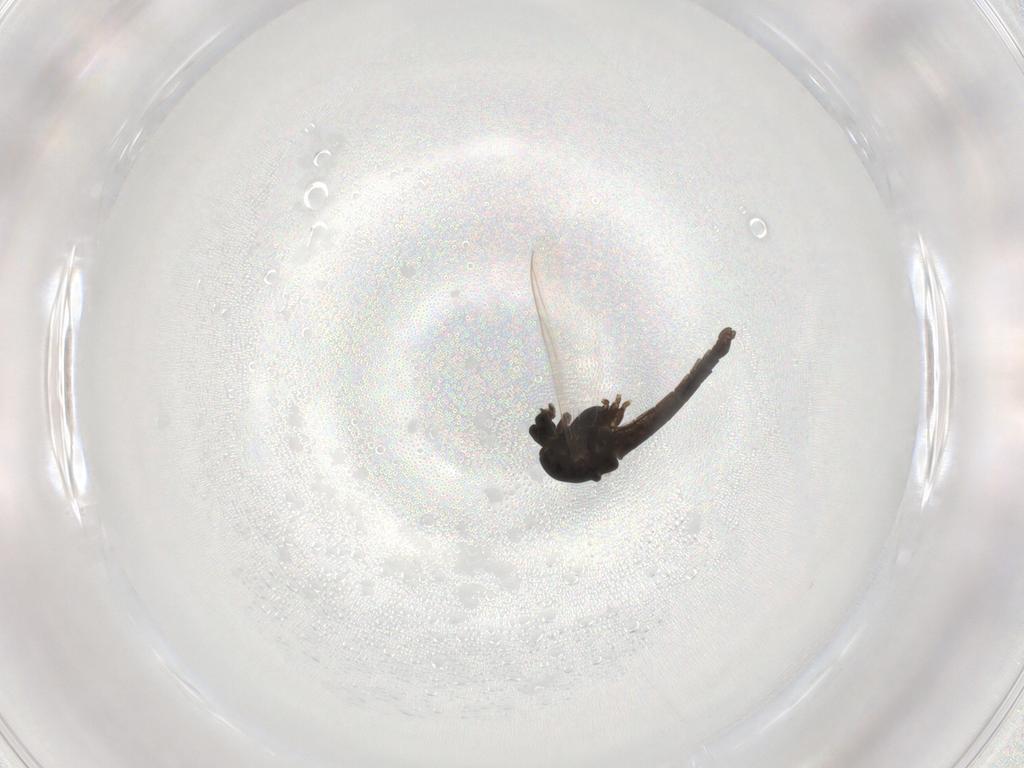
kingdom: Animalia
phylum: Arthropoda
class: Insecta
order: Diptera
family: Chironomidae
